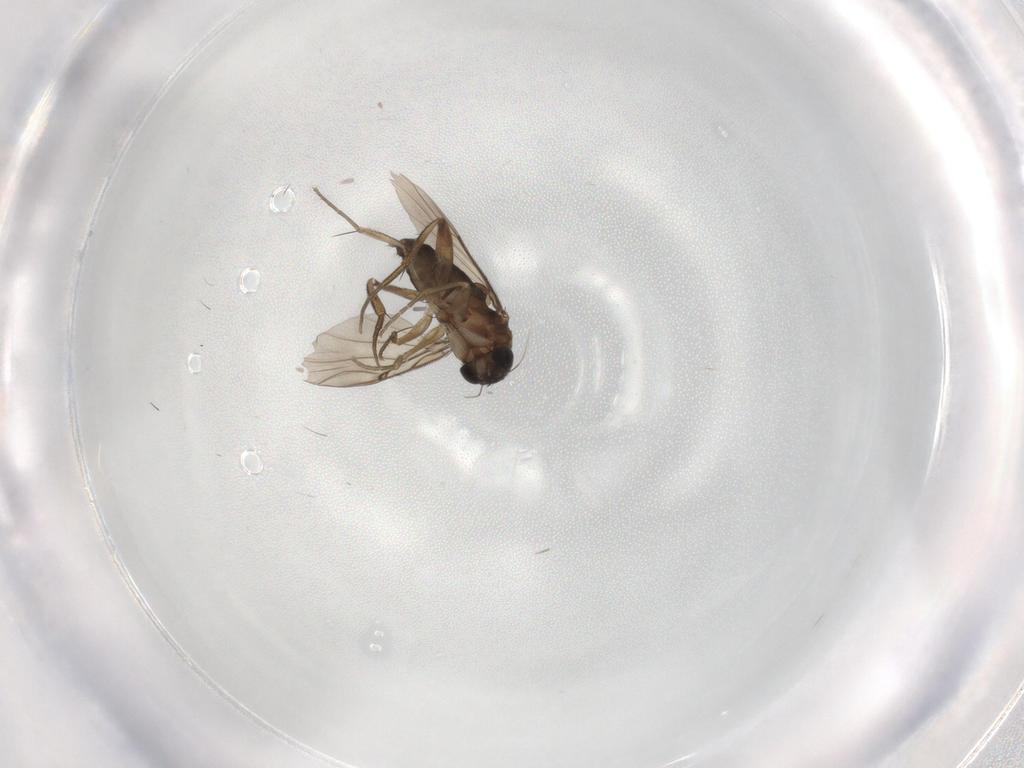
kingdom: Animalia
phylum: Arthropoda
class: Insecta
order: Diptera
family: Phoridae
